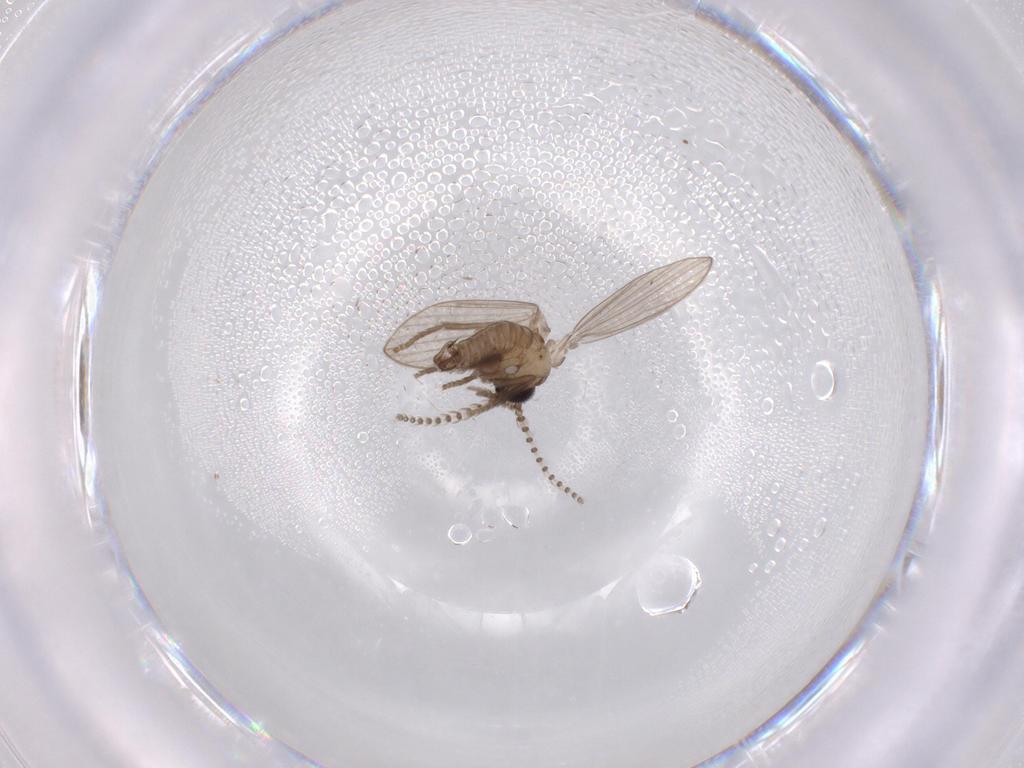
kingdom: Animalia
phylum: Arthropoda
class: Insecta
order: Diptera
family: Psychodidae
